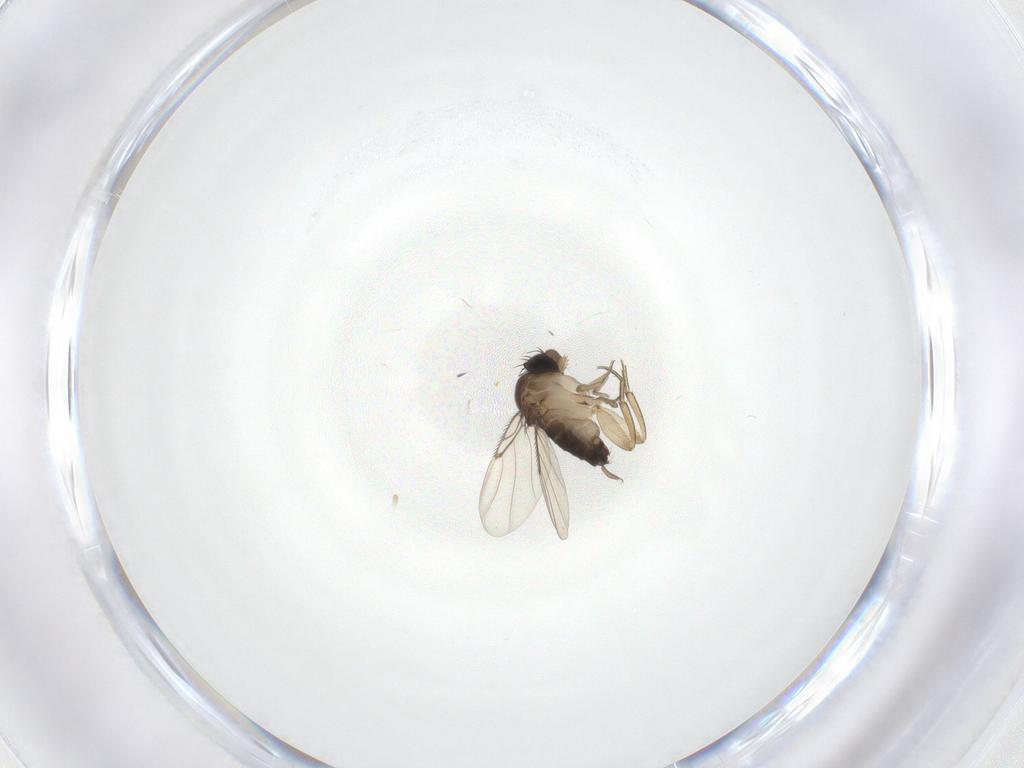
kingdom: Animalia
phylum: Arthropoda
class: Insecta
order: Diptera
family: Phoridae
